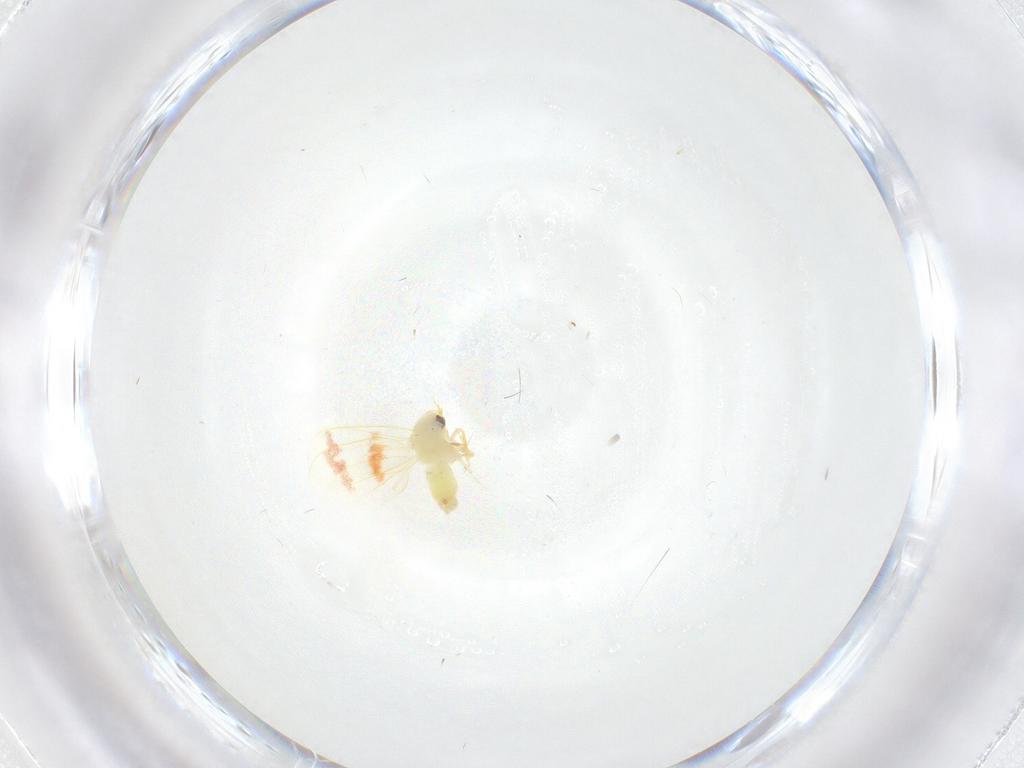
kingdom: Animalia
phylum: Arthropoda
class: Insecta
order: Hemiptera
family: Aleyrodidae
